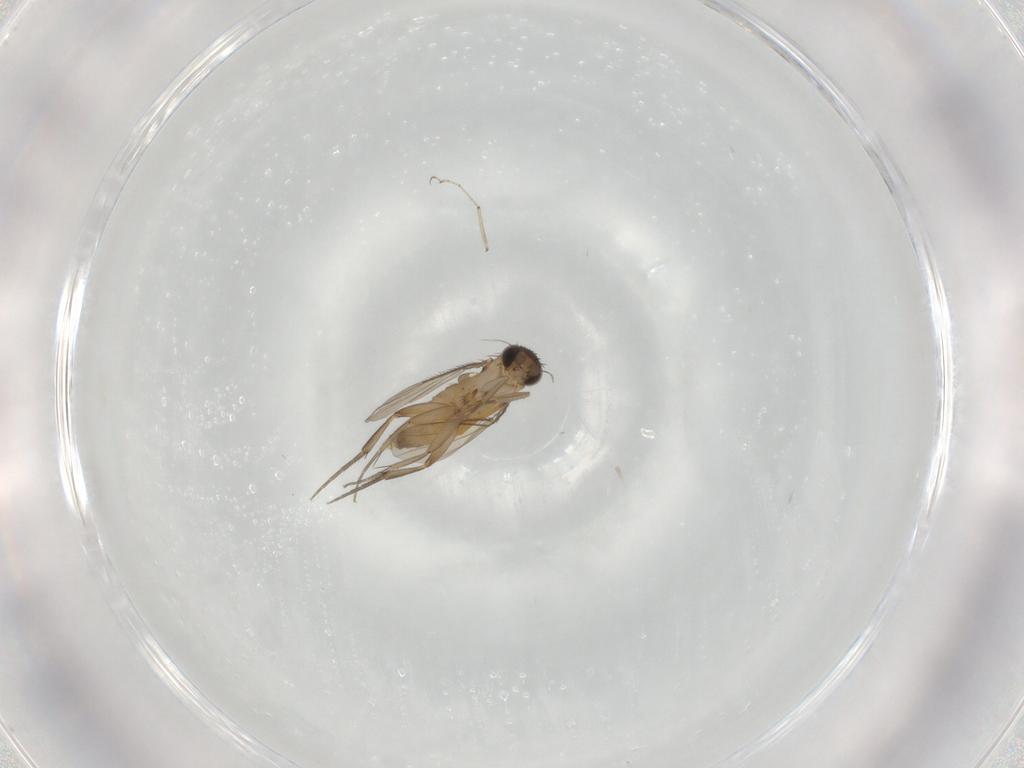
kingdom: Animalia
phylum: Arthropoda
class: Insecta
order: Diptera
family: Phoridae
